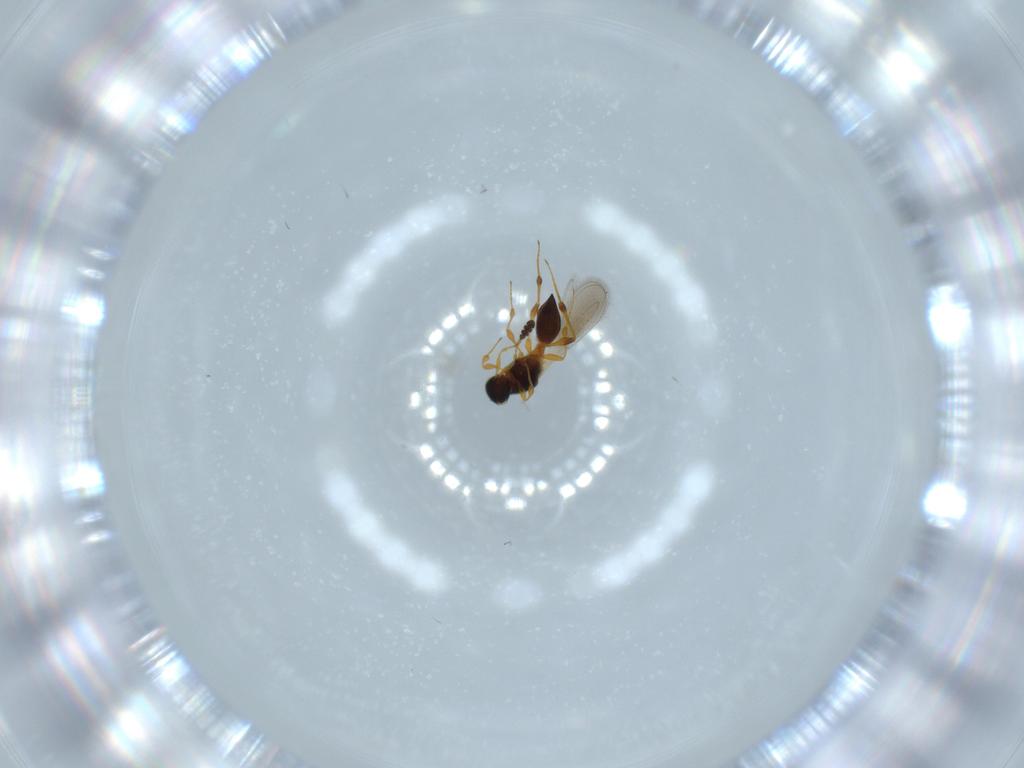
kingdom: Animalia
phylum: Arthropoda
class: Insecta
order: Hymenoptera
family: Platygastridae
